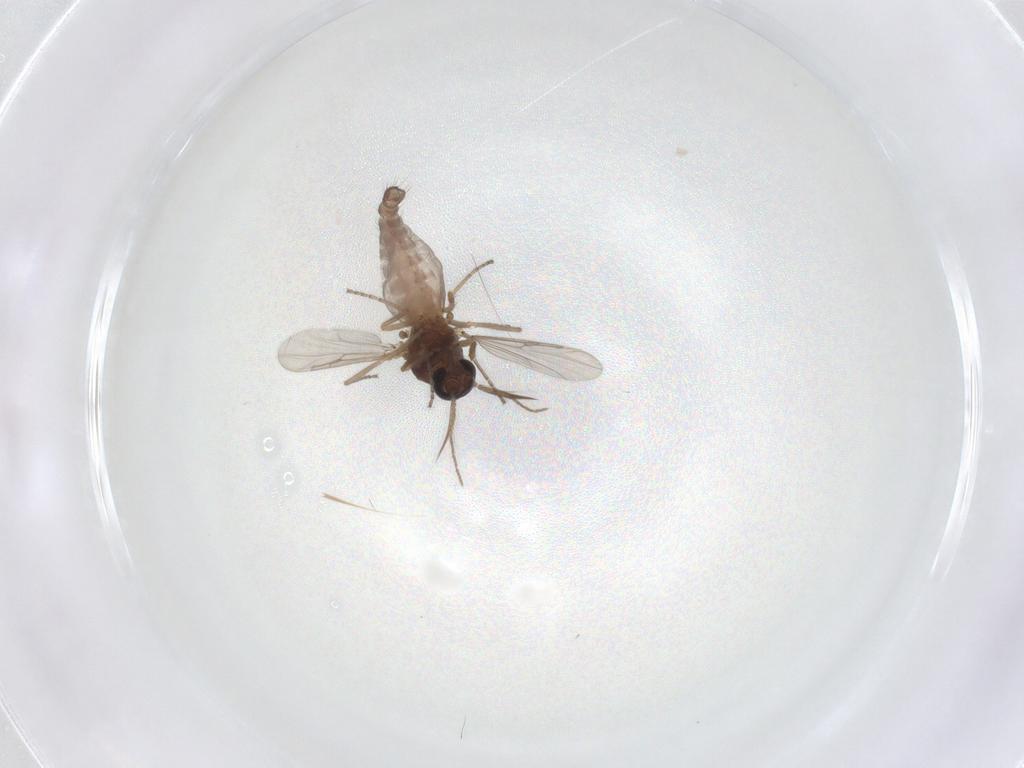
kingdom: Animalia
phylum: Arthropoda
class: Insecta
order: Diptera
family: Ceratopogonidae
